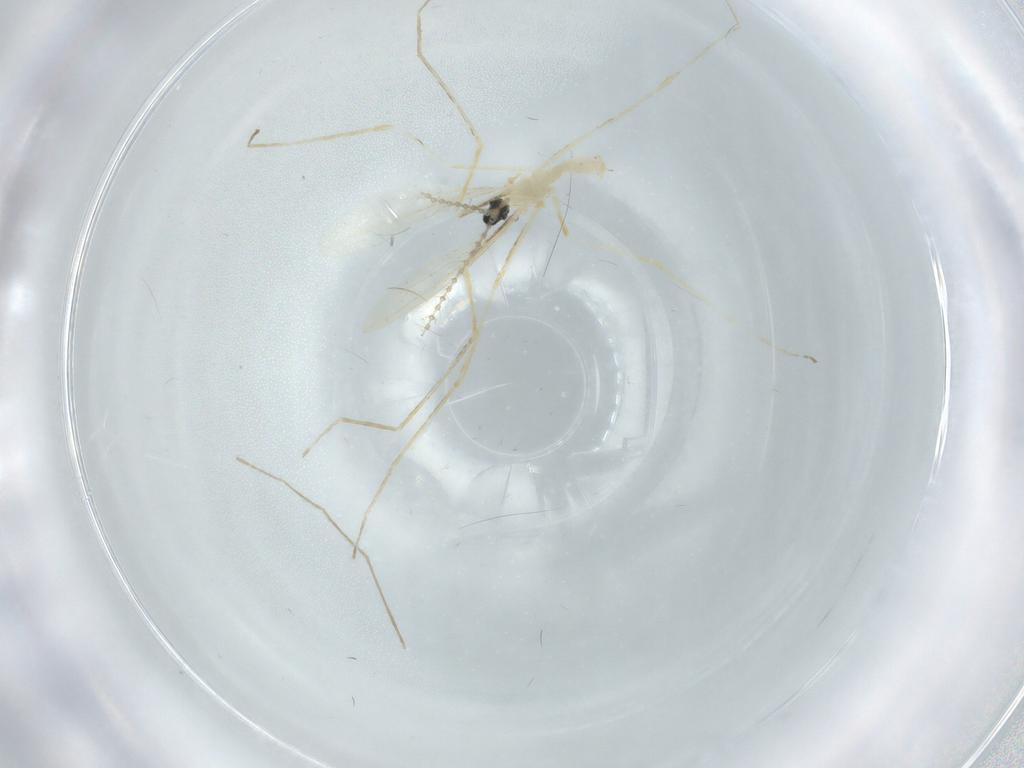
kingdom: Animalia
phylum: Arthropoda
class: Insecta
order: Diptera
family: Cecidomyiidae
